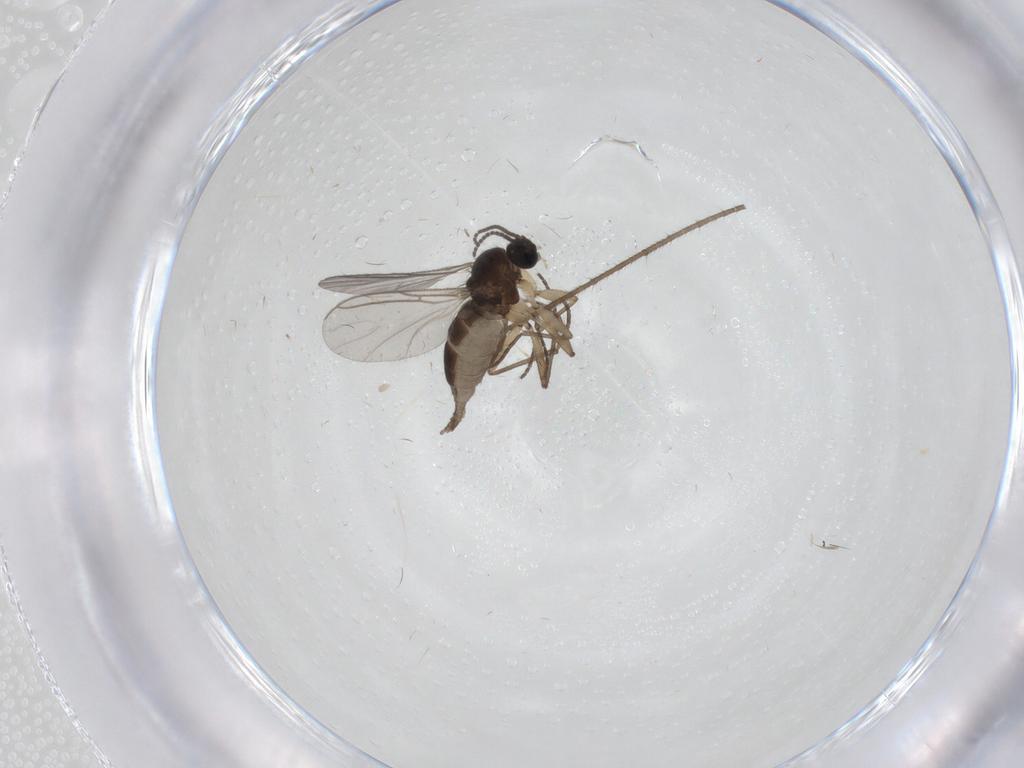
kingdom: Animalia
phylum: Arthropoda
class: Insecta
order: Diptera
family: Sciaridae
